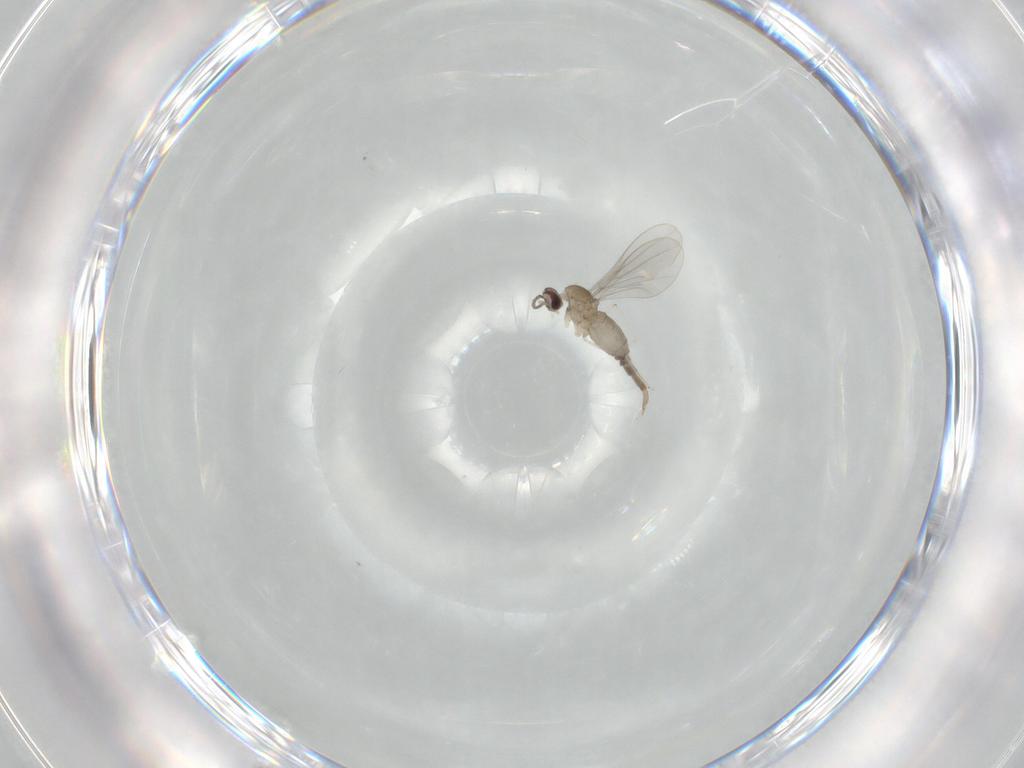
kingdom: Animalia
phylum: Arthropoda
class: Insecta
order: Diptera
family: Cecidomyiidae
